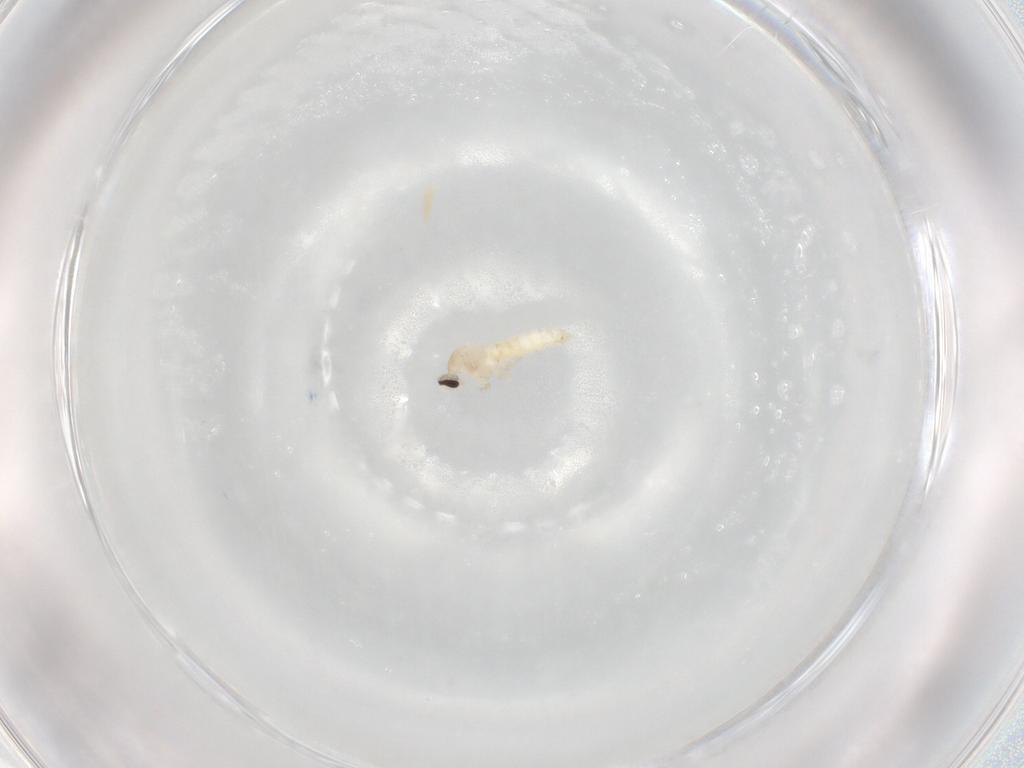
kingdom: Animalia
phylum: Arthropoda
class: Insecta
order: Diptera
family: Cecidomyiidae
